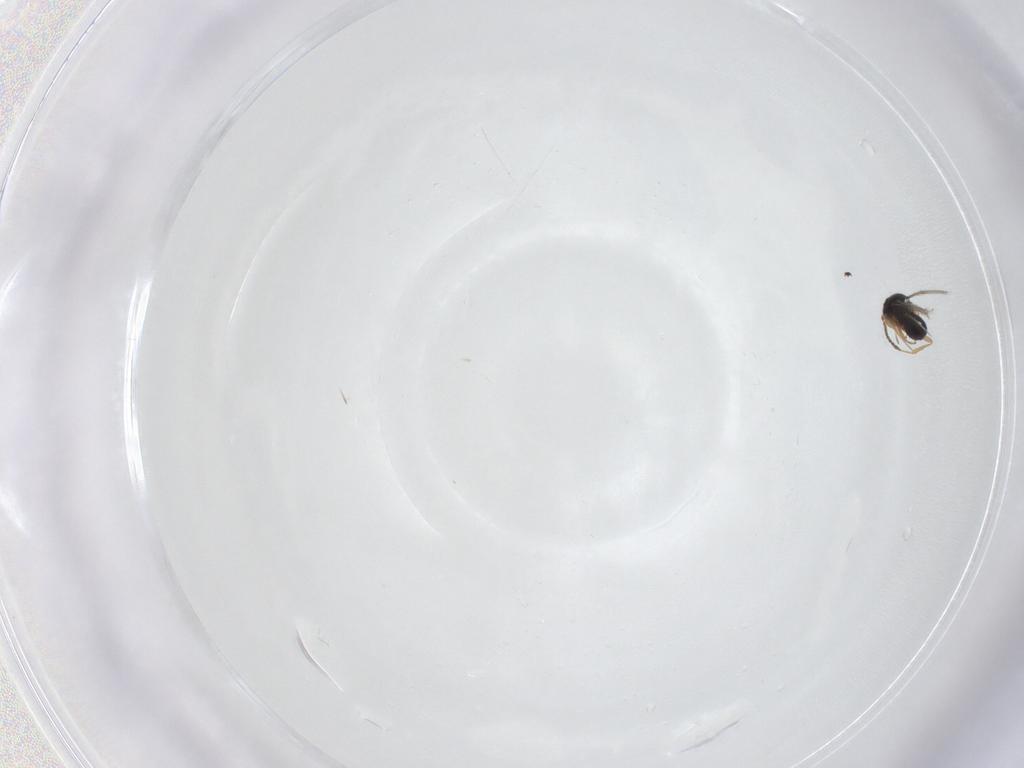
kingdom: Animalia
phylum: Arthropoda
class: Insecta
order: Hymenoptera
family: Scelionidae
